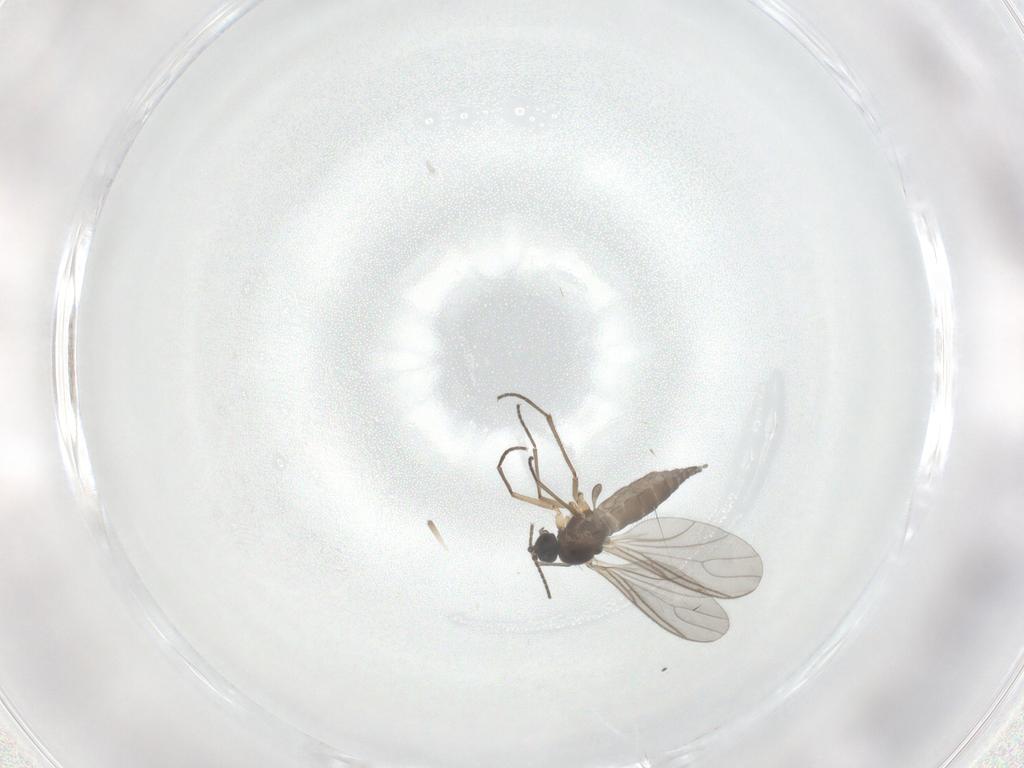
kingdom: Animalia
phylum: Arthropoda
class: Insecta
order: Diptera
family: Sciaridae
